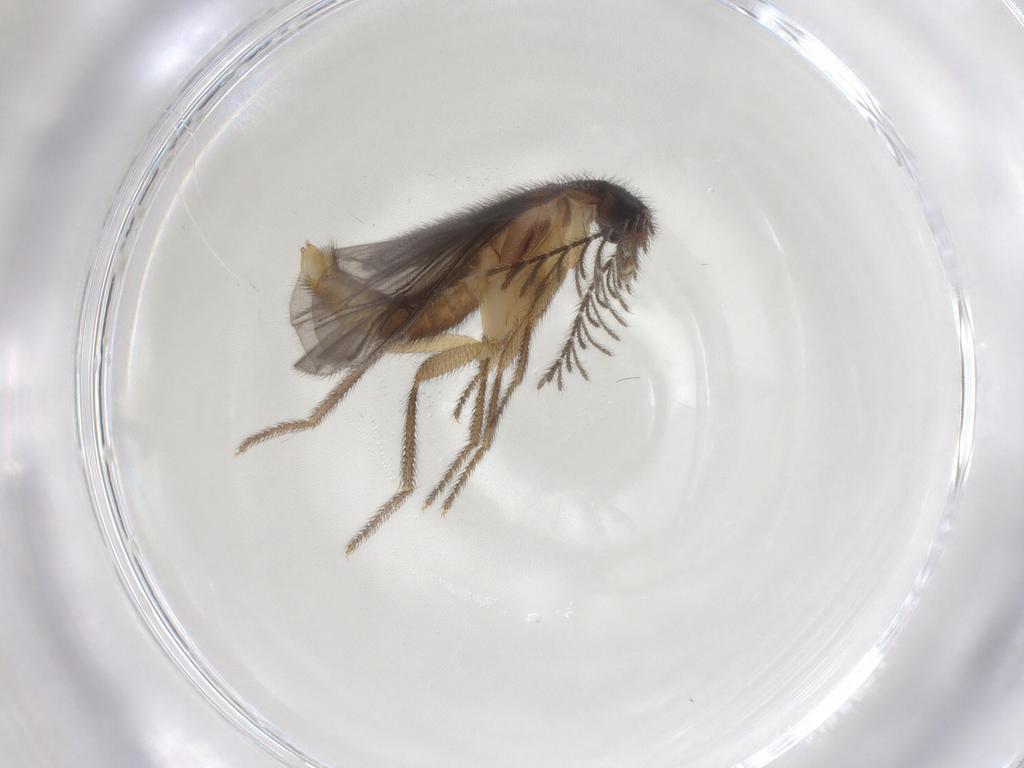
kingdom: Animalia
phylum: Arthropoda
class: Insecta
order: Coleoptera
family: Phengodidae
